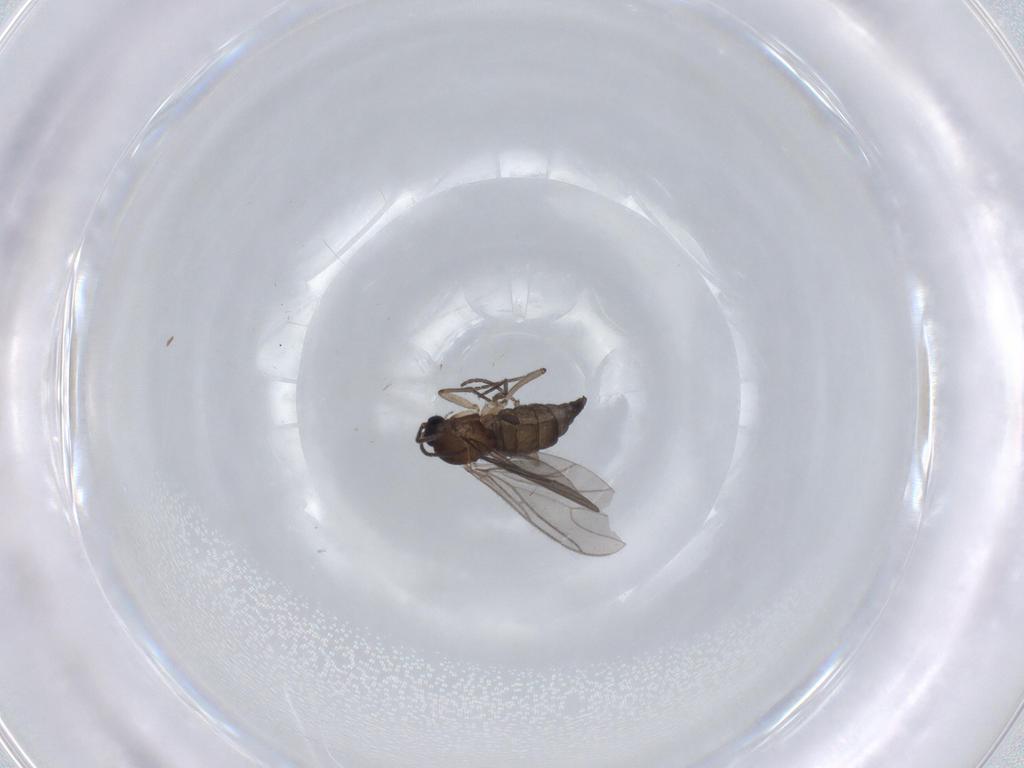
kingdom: Animalia
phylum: Arthropoda
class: Insecta
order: Diptera
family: Sciaridae
